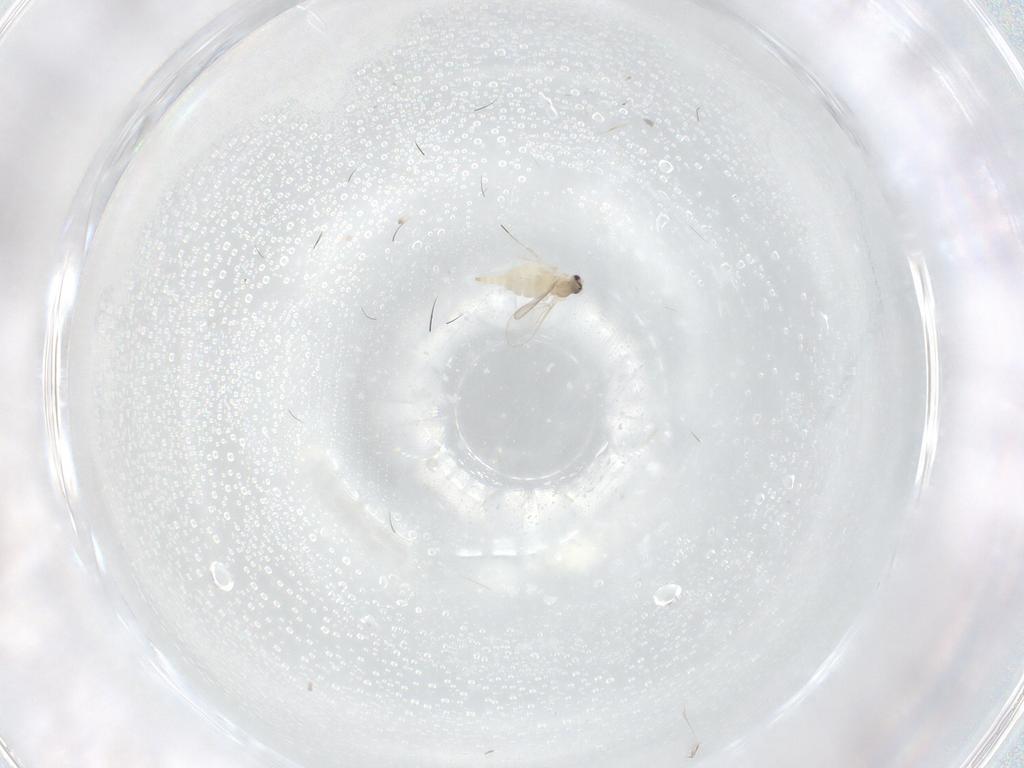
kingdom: Animalia
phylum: Arthropoda
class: Insecta
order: Diptera
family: Cecidomyiidae
